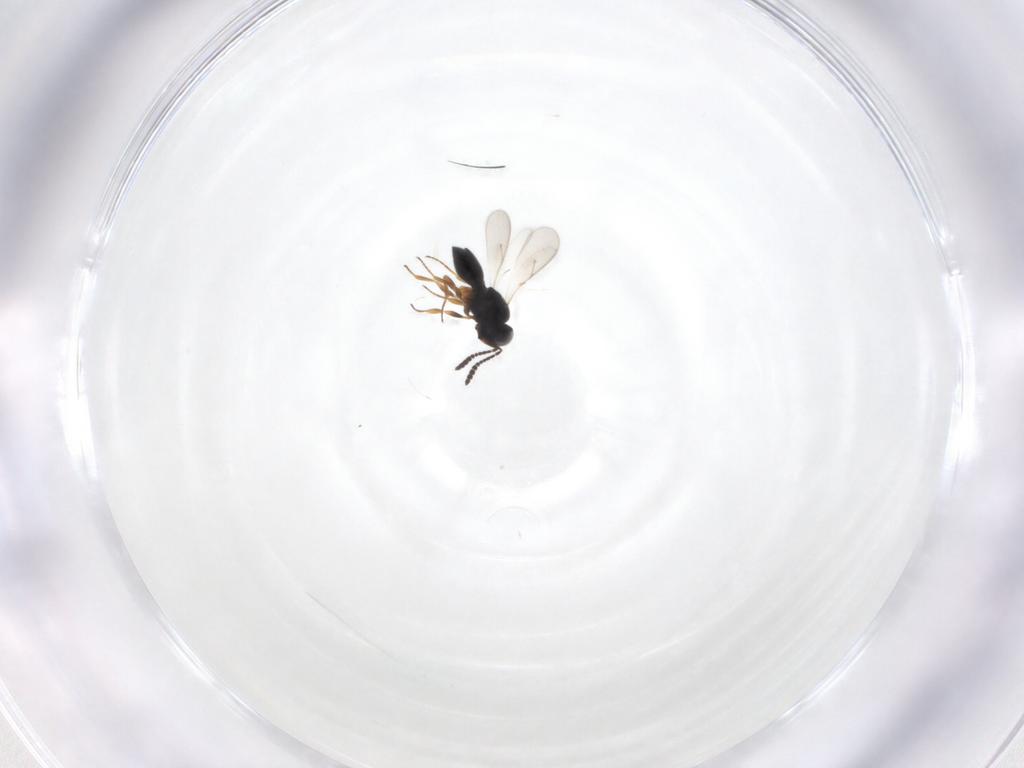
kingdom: Animalia
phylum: Arthropoda
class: Insecta
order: Hymenoptera
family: Scelionidae
